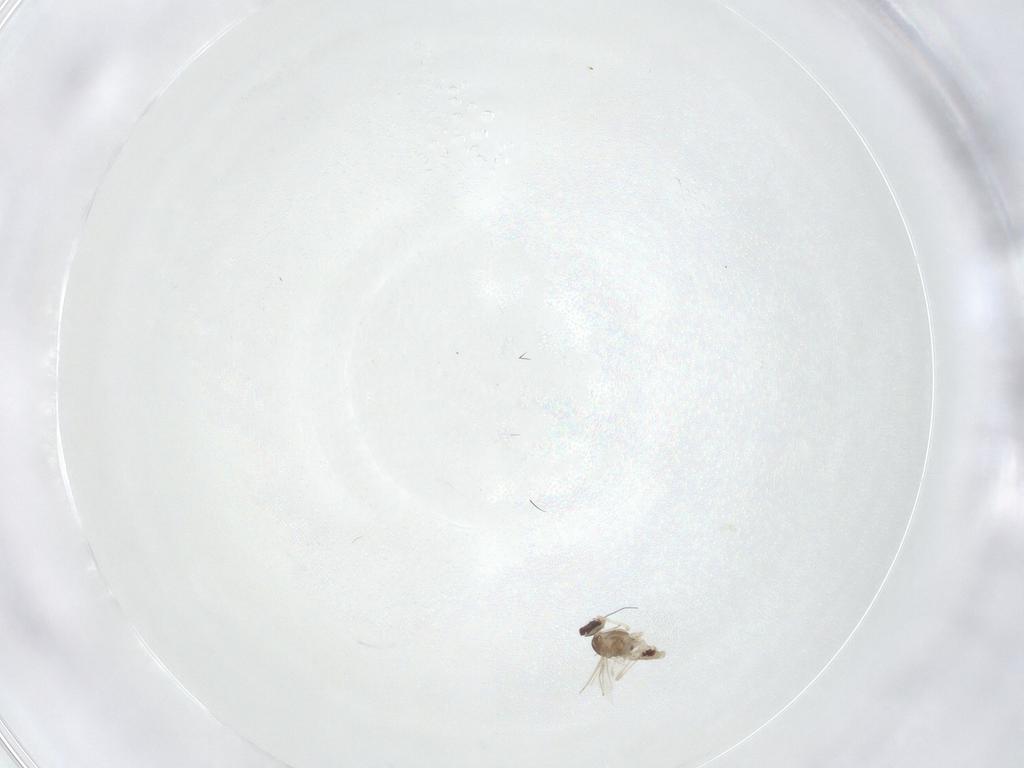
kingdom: Animalia
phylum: Arthropoda
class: Insecta
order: Diptera
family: Cecidomyiidae
